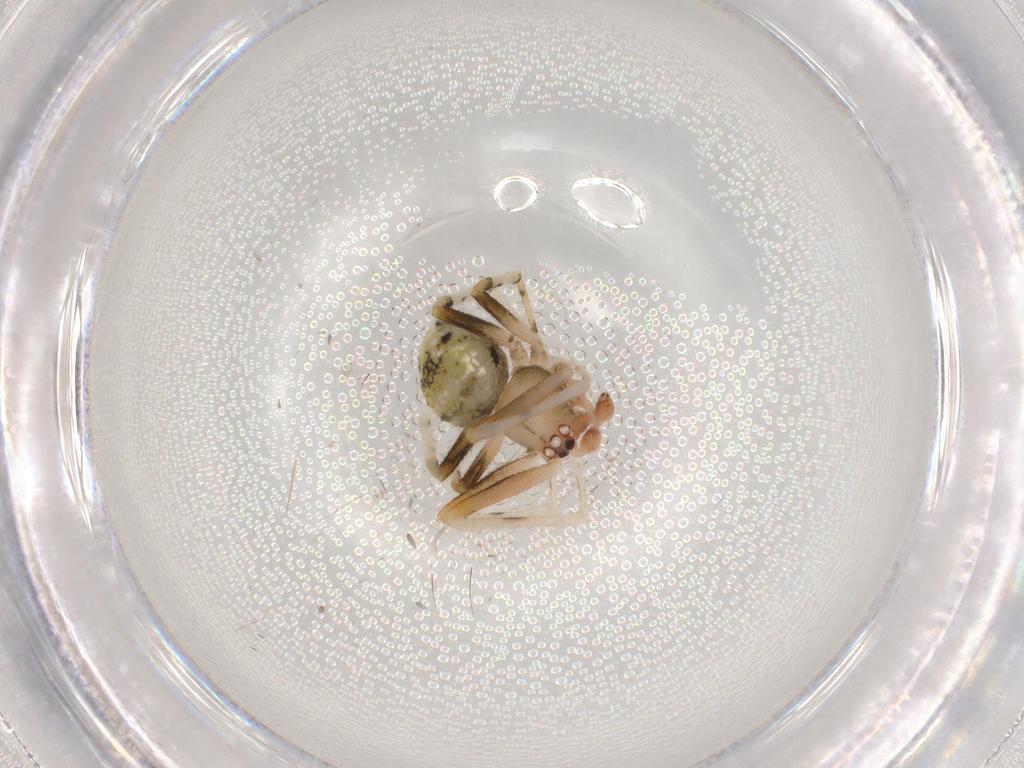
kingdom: Animalia
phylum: Arthropoda
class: Arachnida
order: Araneae
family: Theridiidae
